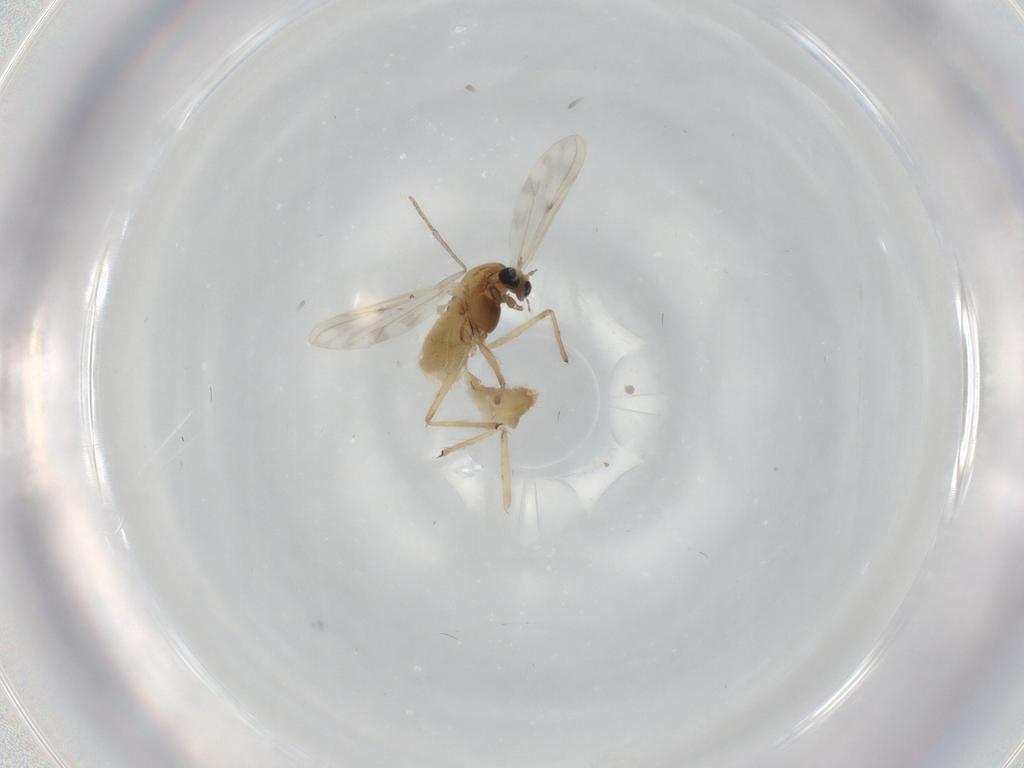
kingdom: Animalia
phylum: Arthropoda
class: Insecta
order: Diptera
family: Chironomidae
